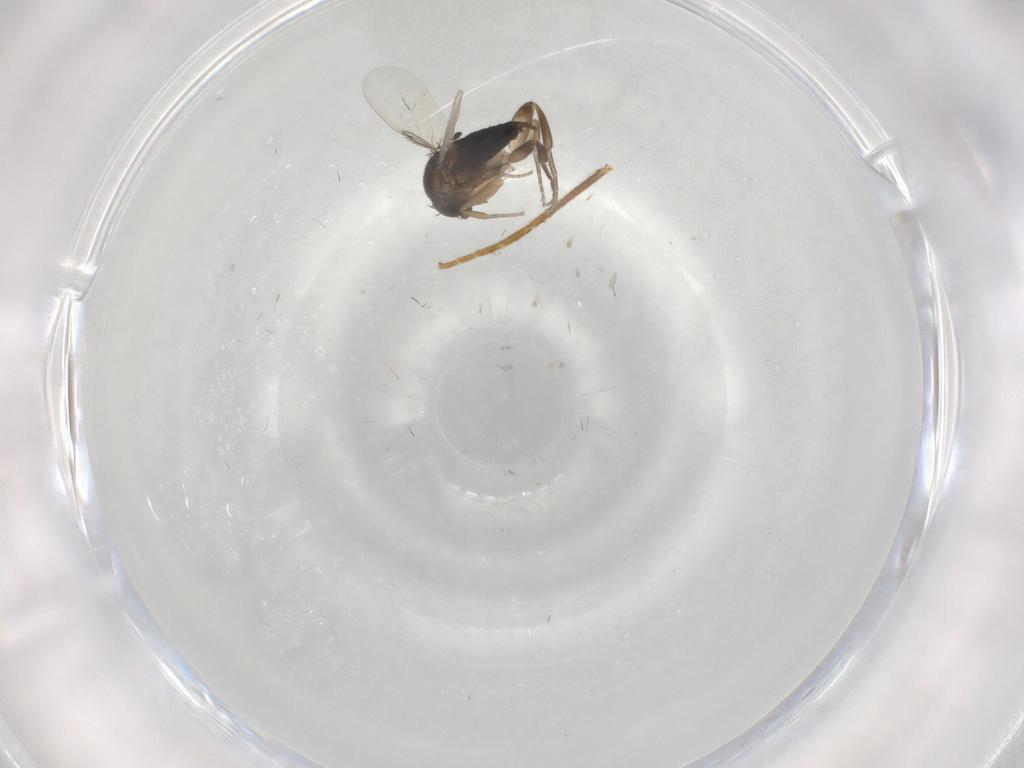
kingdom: Animalia
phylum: Arthropoda
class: Insecta
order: Diptera
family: Phoridae
